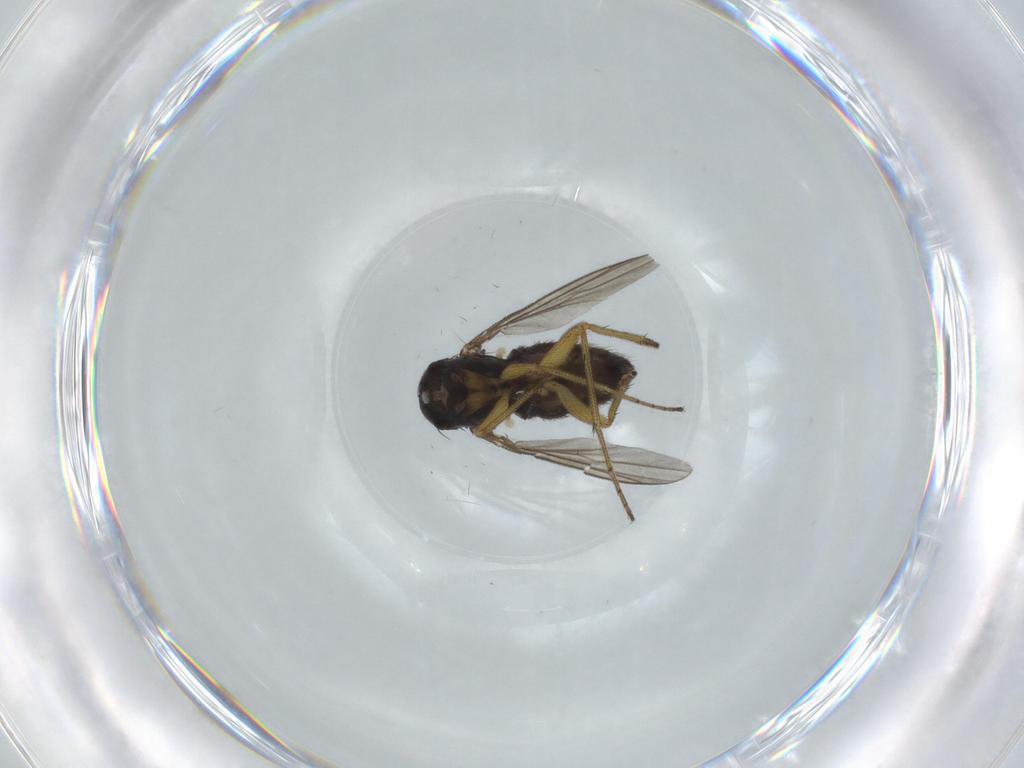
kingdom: Animalia
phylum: Arthropoda
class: Insecta
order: Diptera
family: Dolichopodidae
